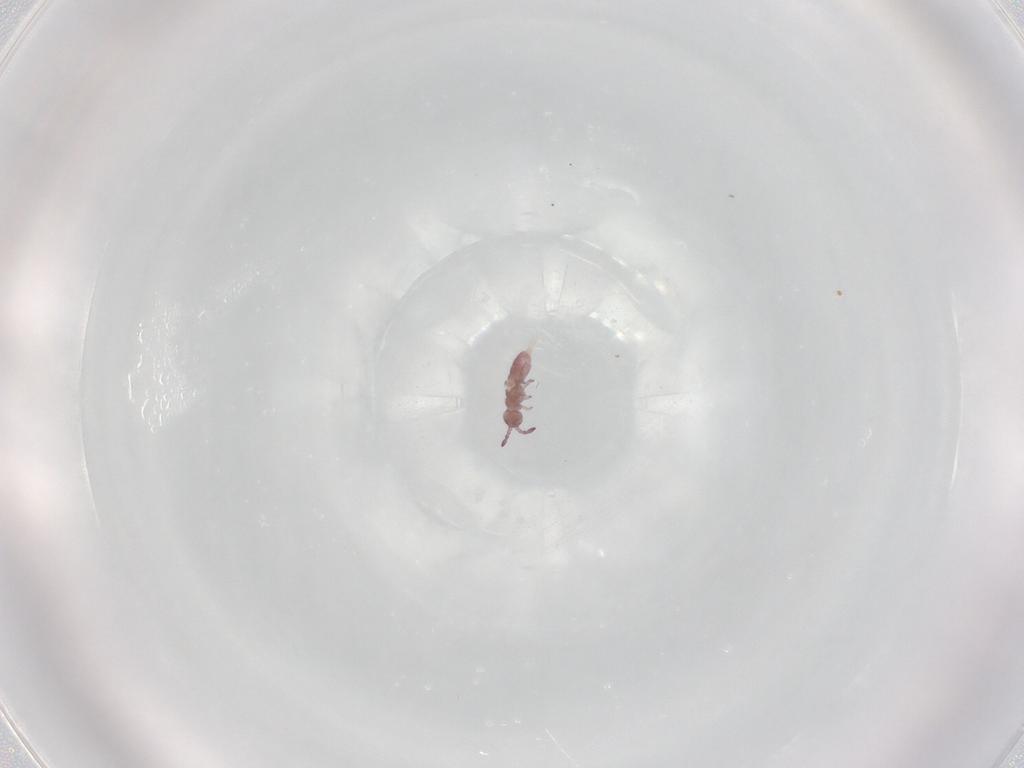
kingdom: Animalia
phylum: Arthropoda
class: Collembola
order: Entomobryomorpha
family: Isotomidae
